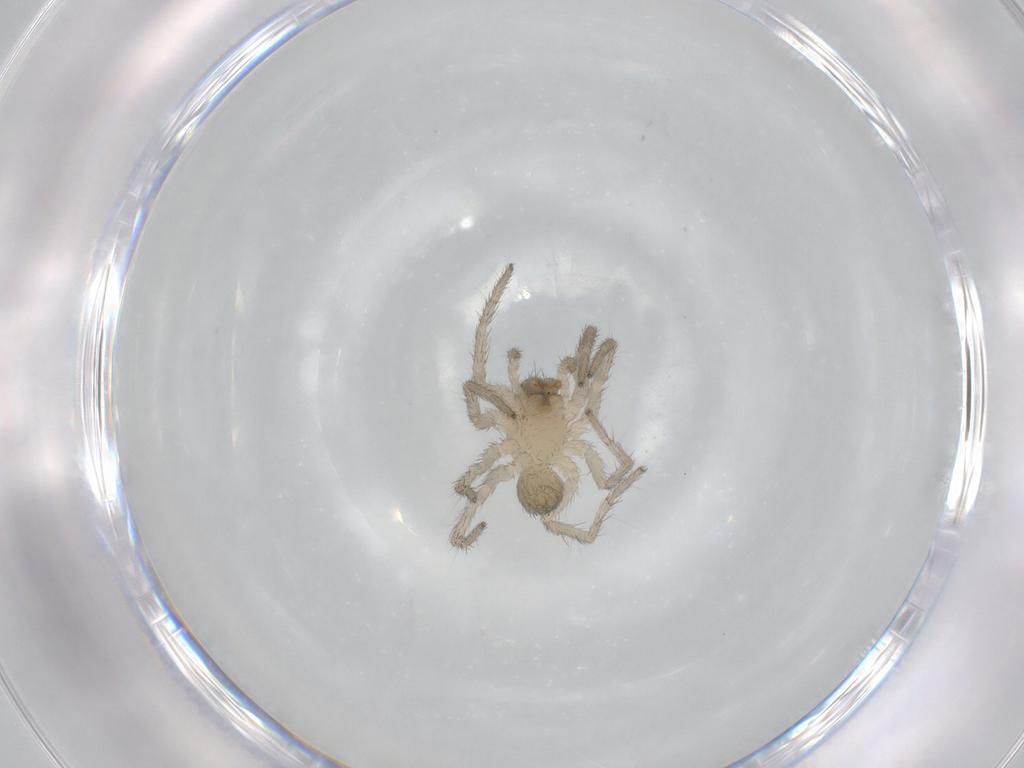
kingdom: Animalia
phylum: Arthropoda
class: Arachnida
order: Araneae
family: Lycosidae
